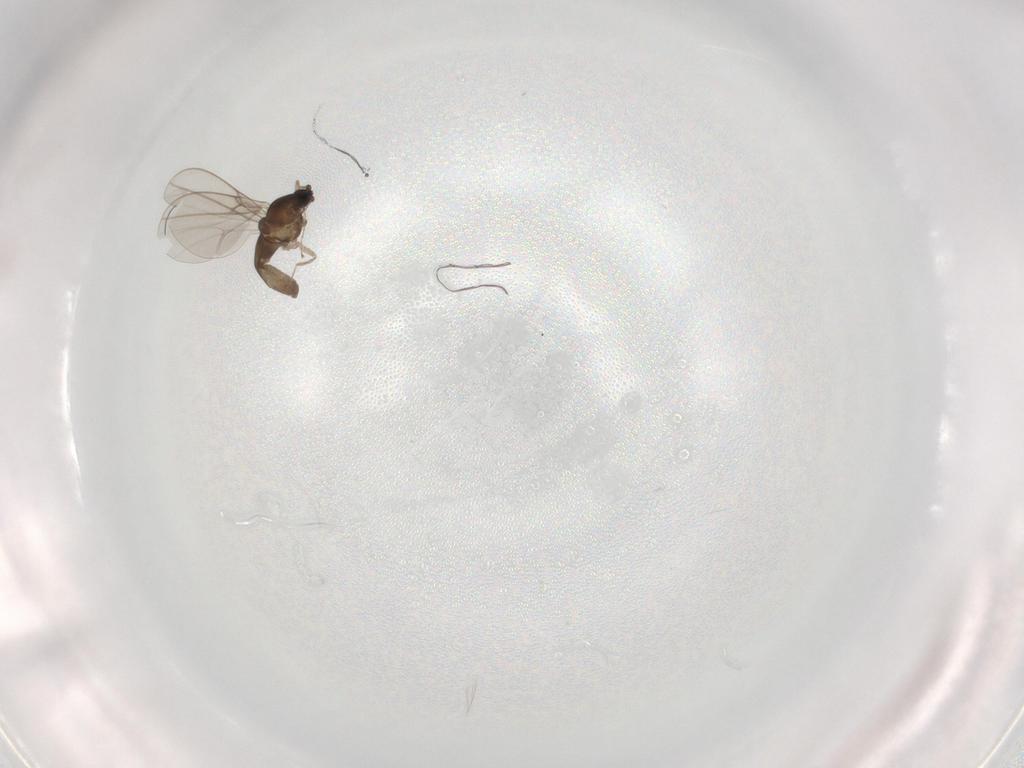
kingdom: Animalia
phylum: Arthropoda
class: Insecta
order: Diptera
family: Cecidomyiidae
